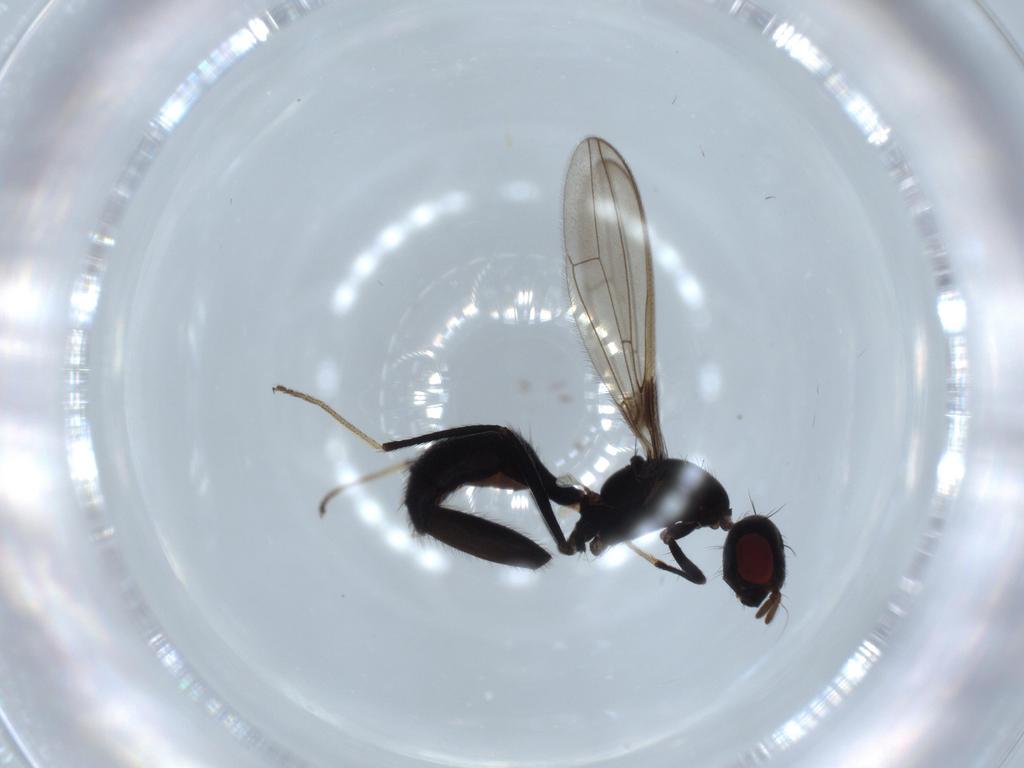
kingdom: Animalia
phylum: Arthropoda
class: Insecta
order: Diptera
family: Richardiidae
